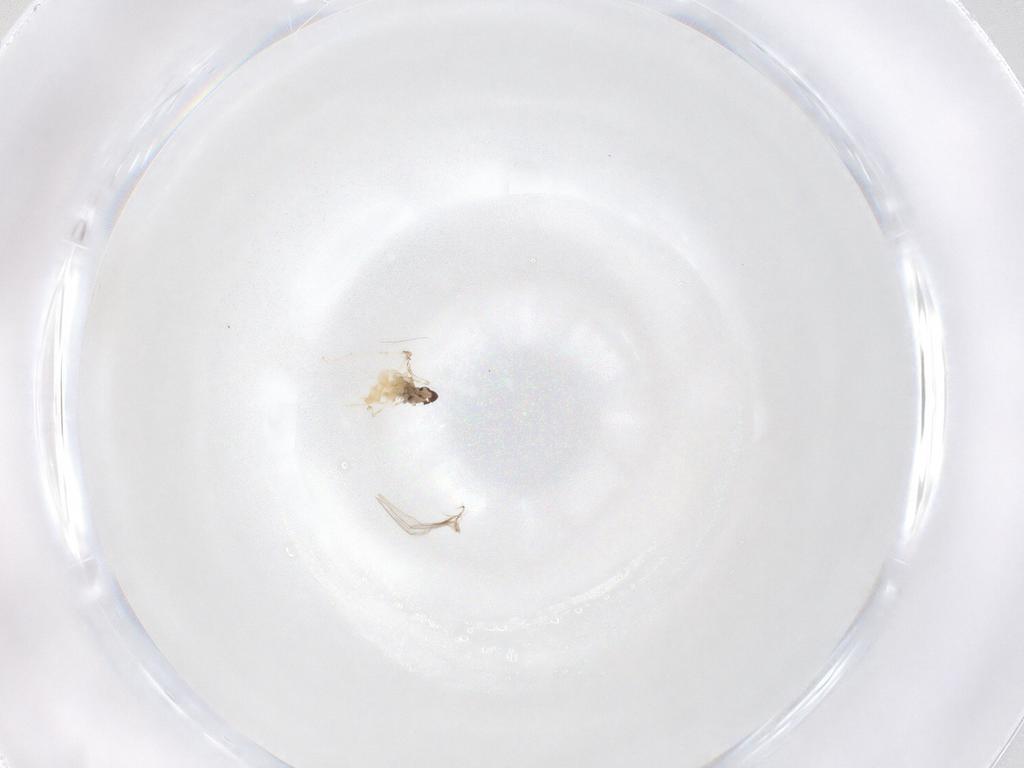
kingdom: Animalia
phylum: Arthropoda
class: Insecta
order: Diptera
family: Cecidomyiidae
